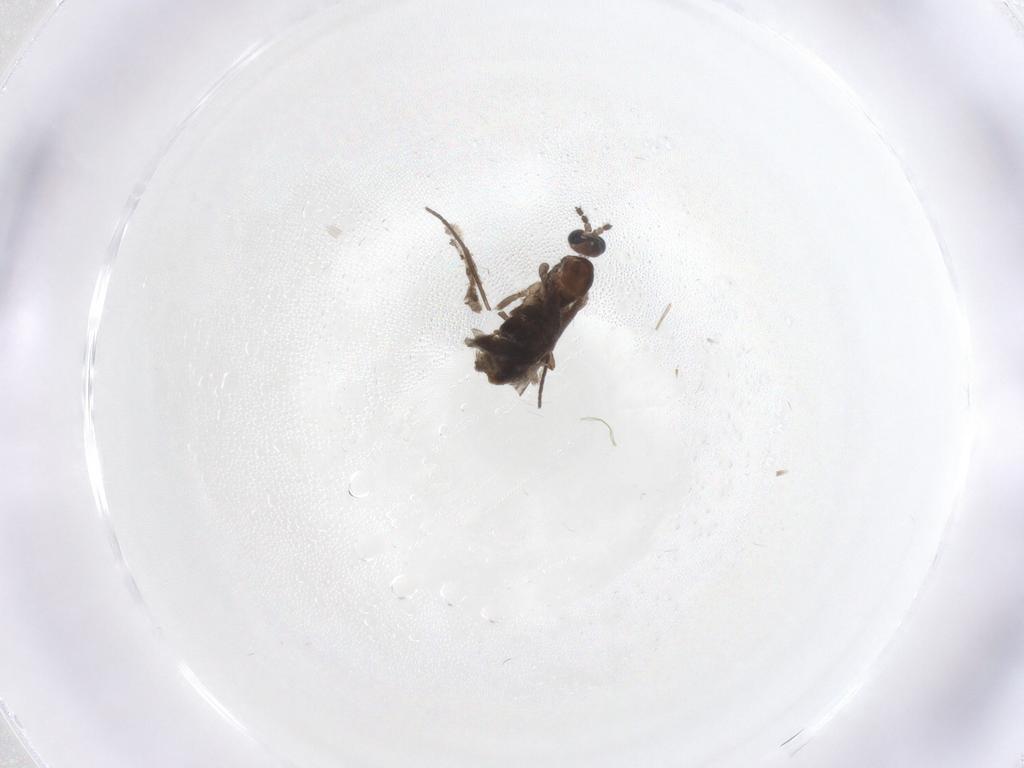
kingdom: Animalia
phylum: Arthropoda
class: Insecta
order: Diptera
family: Sciaridae
